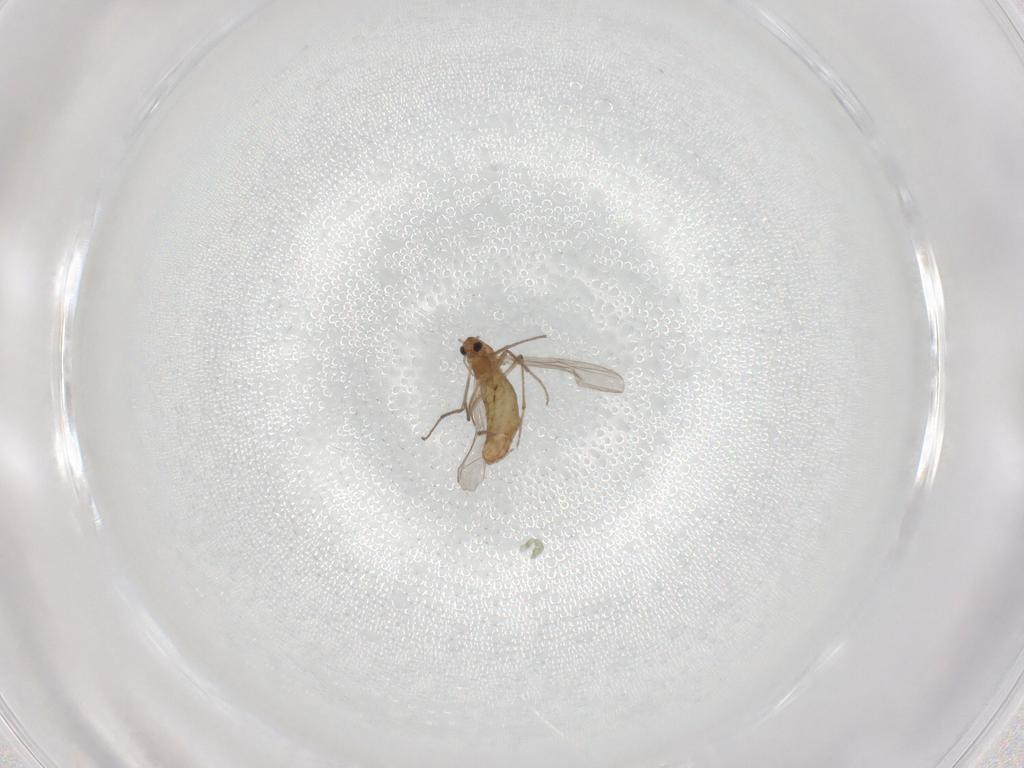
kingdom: Animalia
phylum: Arthropoda
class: Insecta
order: Diptera
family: Chironomidae
